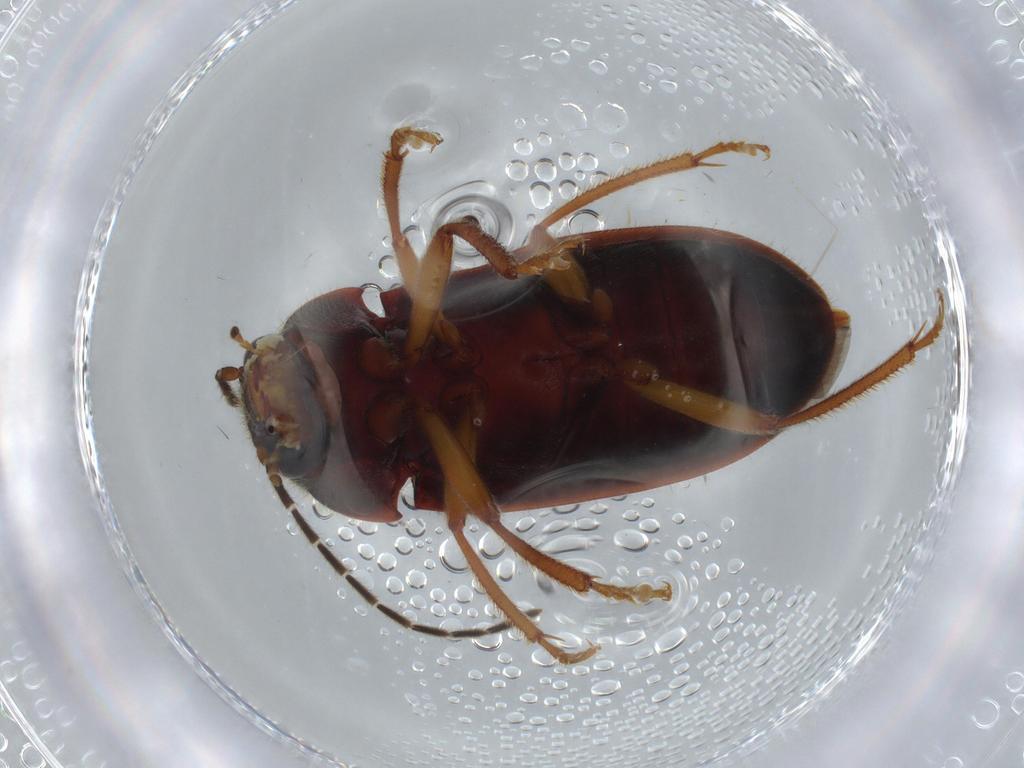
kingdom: Animalia
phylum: Arthropoda
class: Insecta
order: Coleoptera
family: Ptilodactylidae
